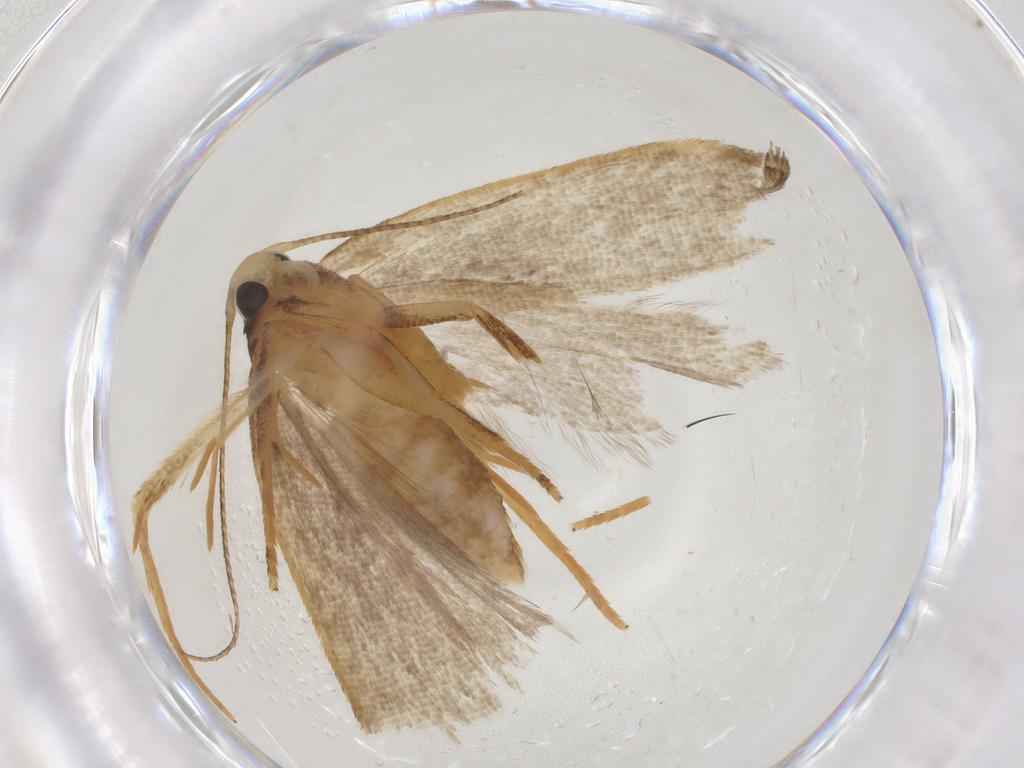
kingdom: Animalia
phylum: Arthropoda
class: Insecta
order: Lepidoptera
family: Gelechiidae
